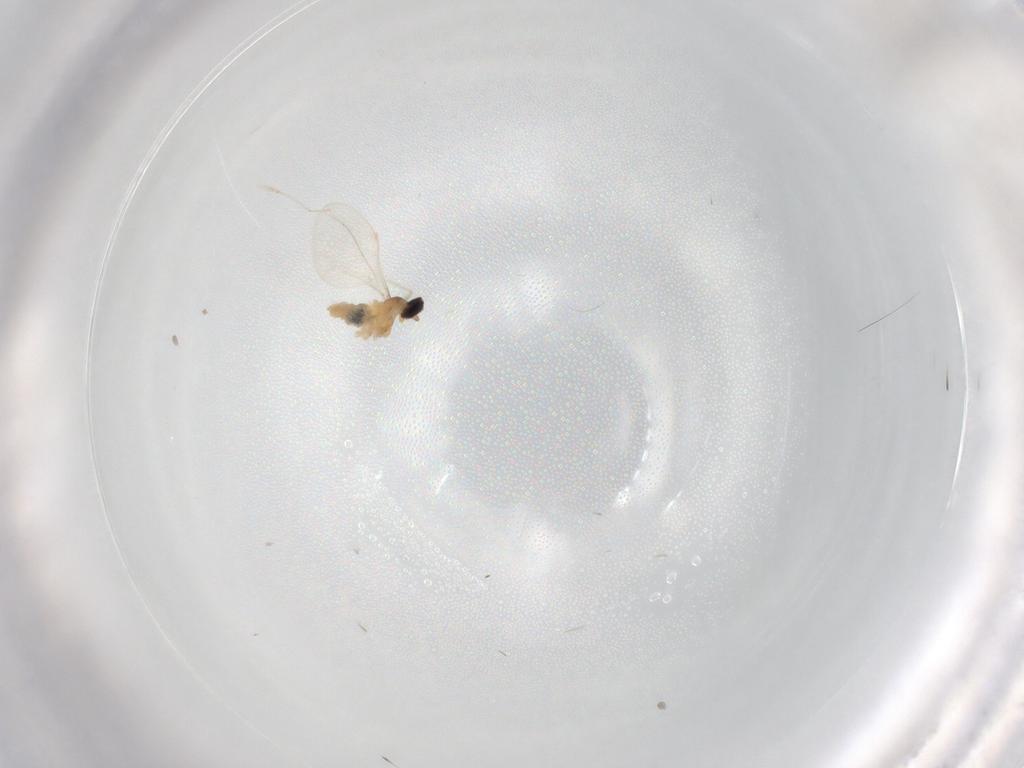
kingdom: Animalia
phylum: Arthropoda
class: Insecta
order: Diptera
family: Cecidomyiidae
